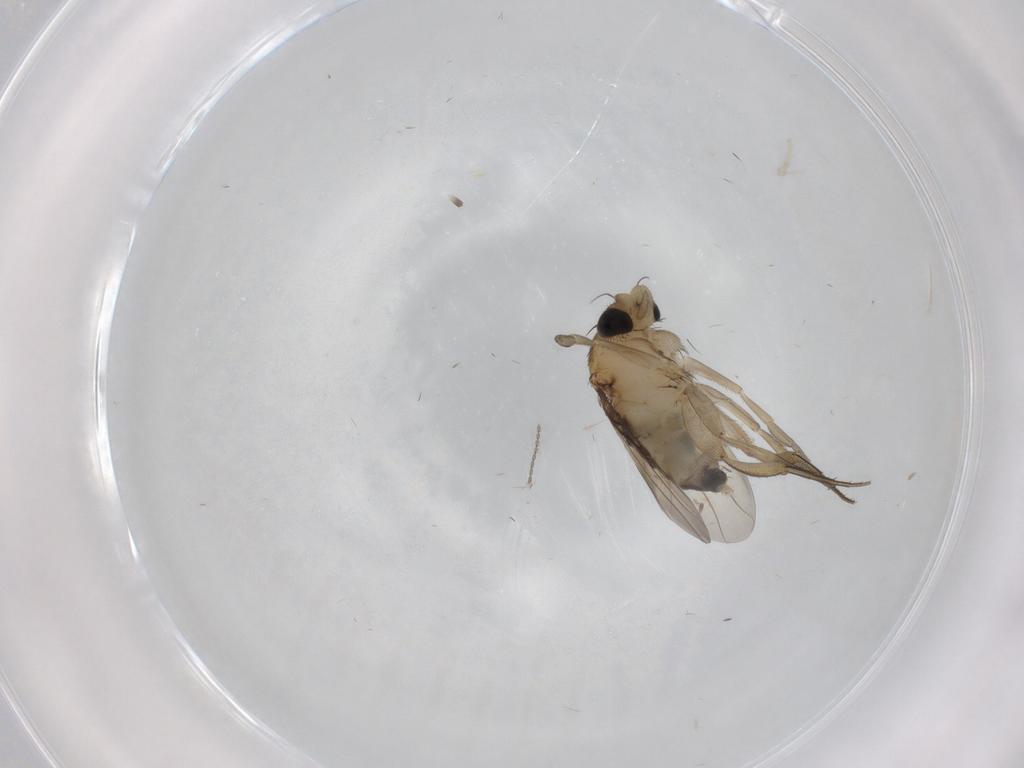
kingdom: Animalia
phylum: Arthropoda
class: Insecta
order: Diptera
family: Phoridae
